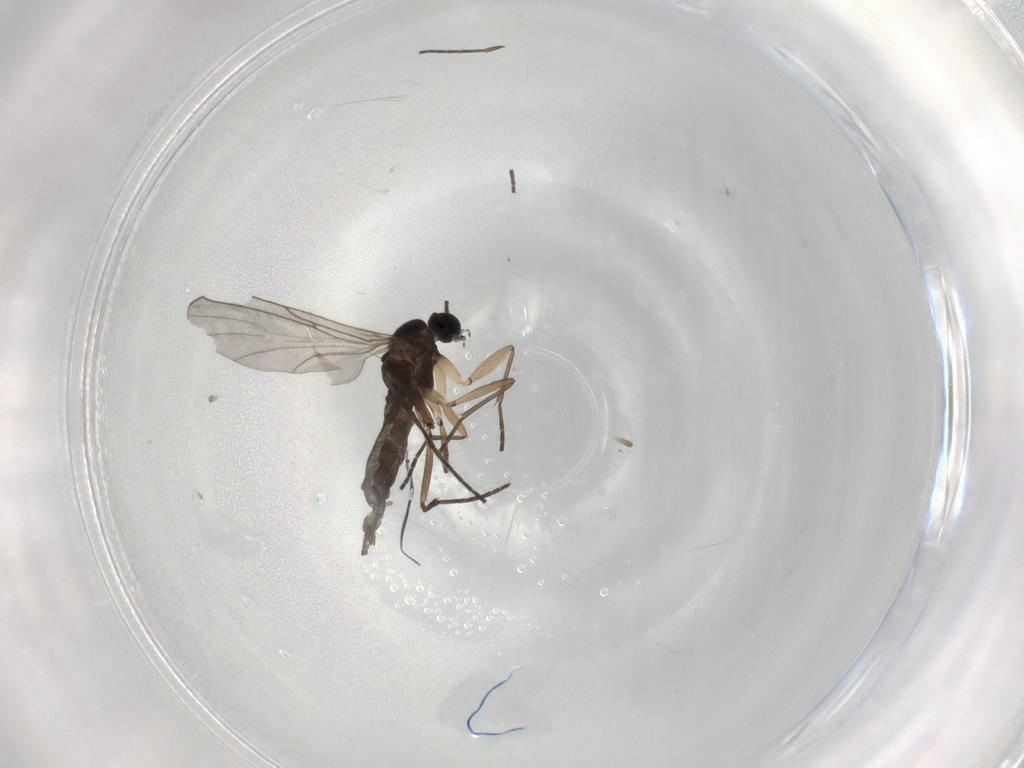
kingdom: Animalia
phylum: Arthropoda
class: Insecta
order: Diptera
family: Sciaridae
